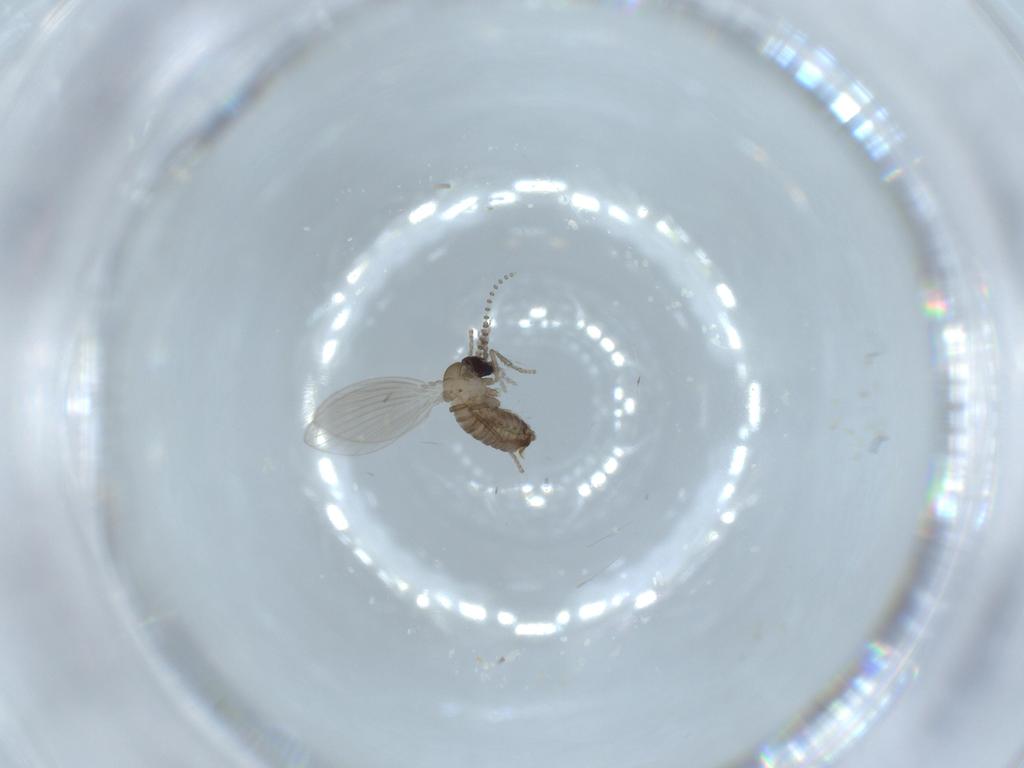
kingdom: Animalia
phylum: Arthropoda
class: Insecta
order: Diptera
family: Psychodidae
